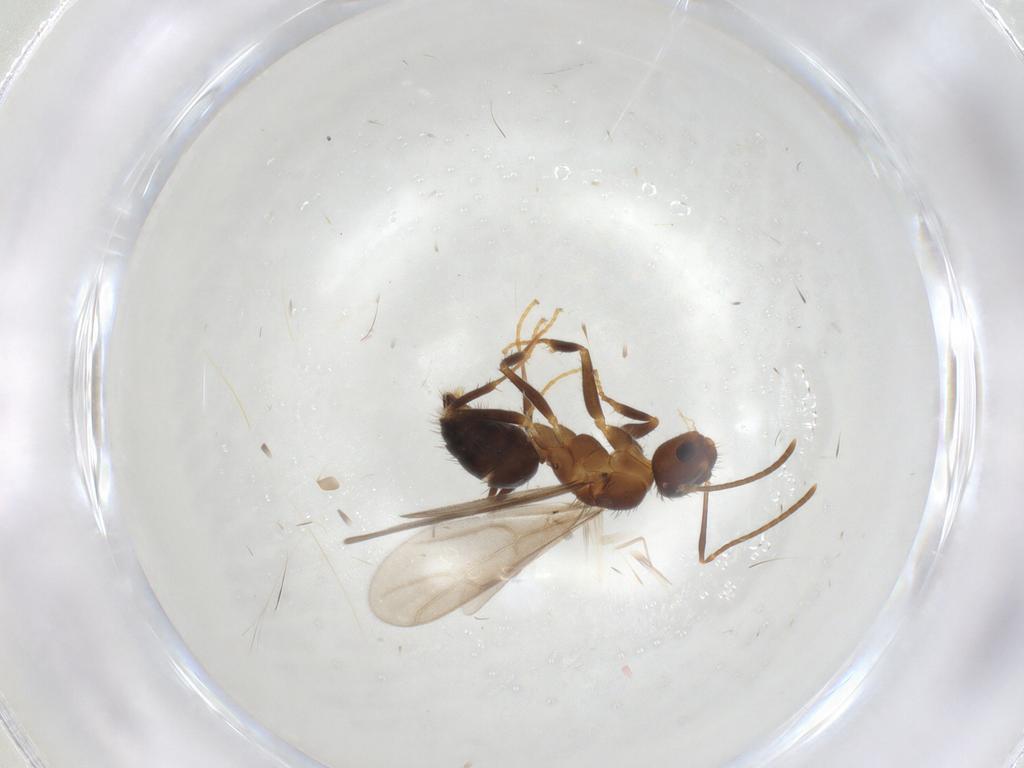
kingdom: Animalia
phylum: Arthropoda
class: Insecta
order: Hymenoptera
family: Formicidae
